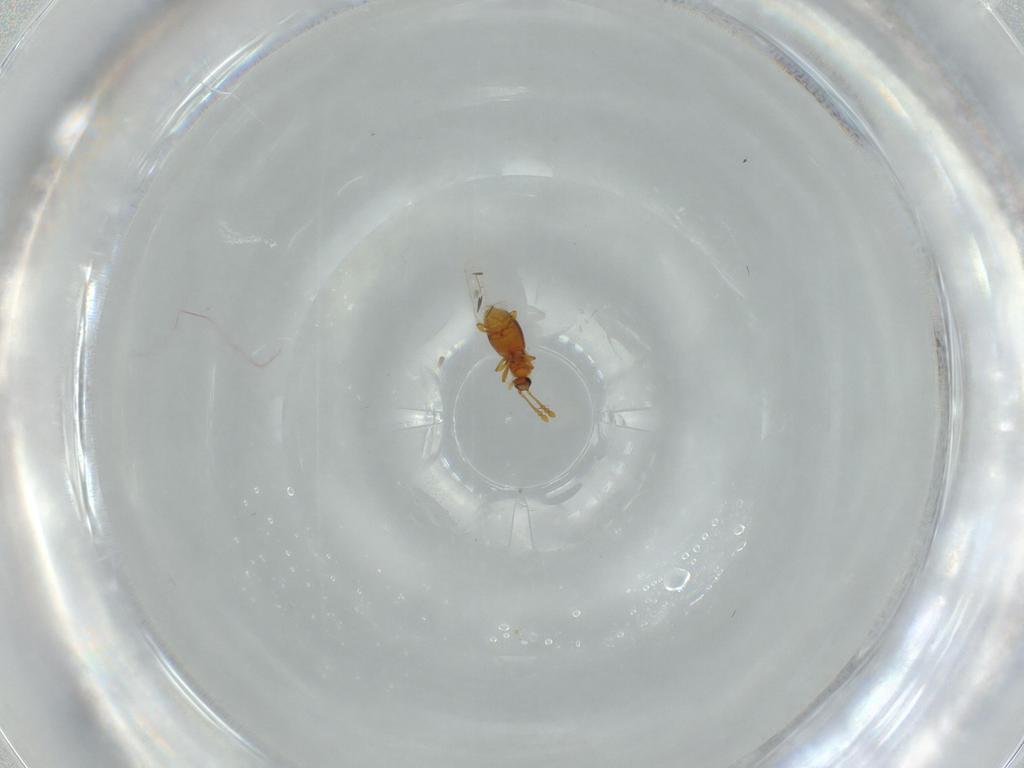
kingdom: Animalia
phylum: Arthropoda
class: Insecta
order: Coleoptera
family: Staphylinidae
